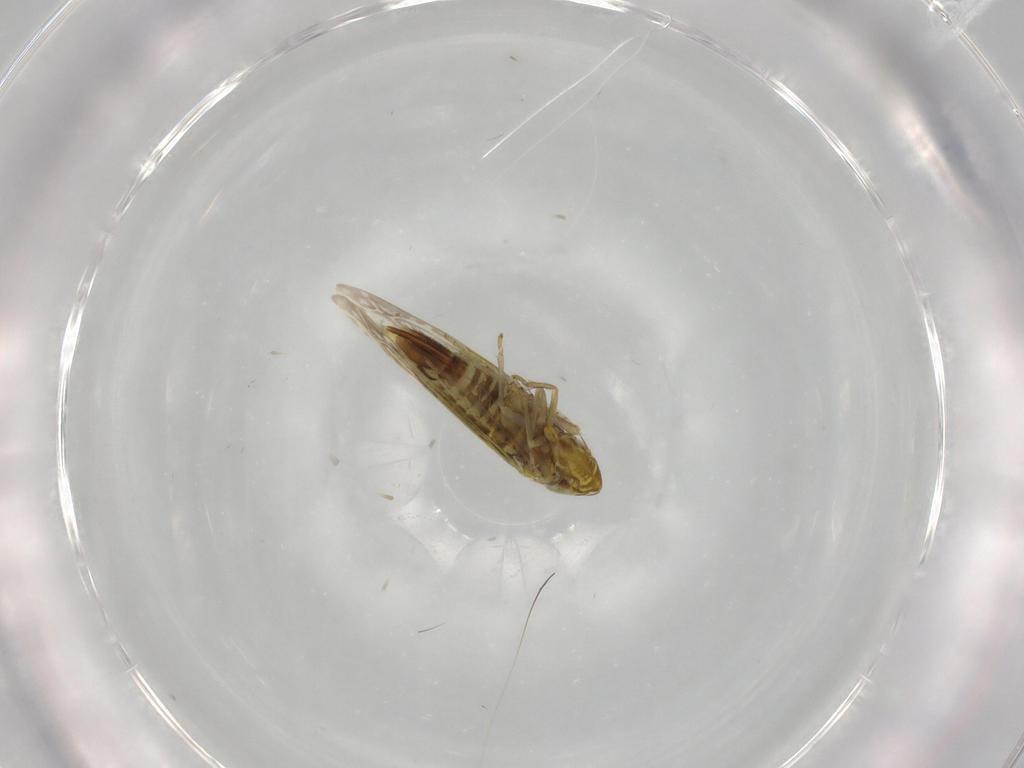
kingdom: Animalia
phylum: Arthropoda
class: Insecta
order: Hemiptera
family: Cicadellidae
